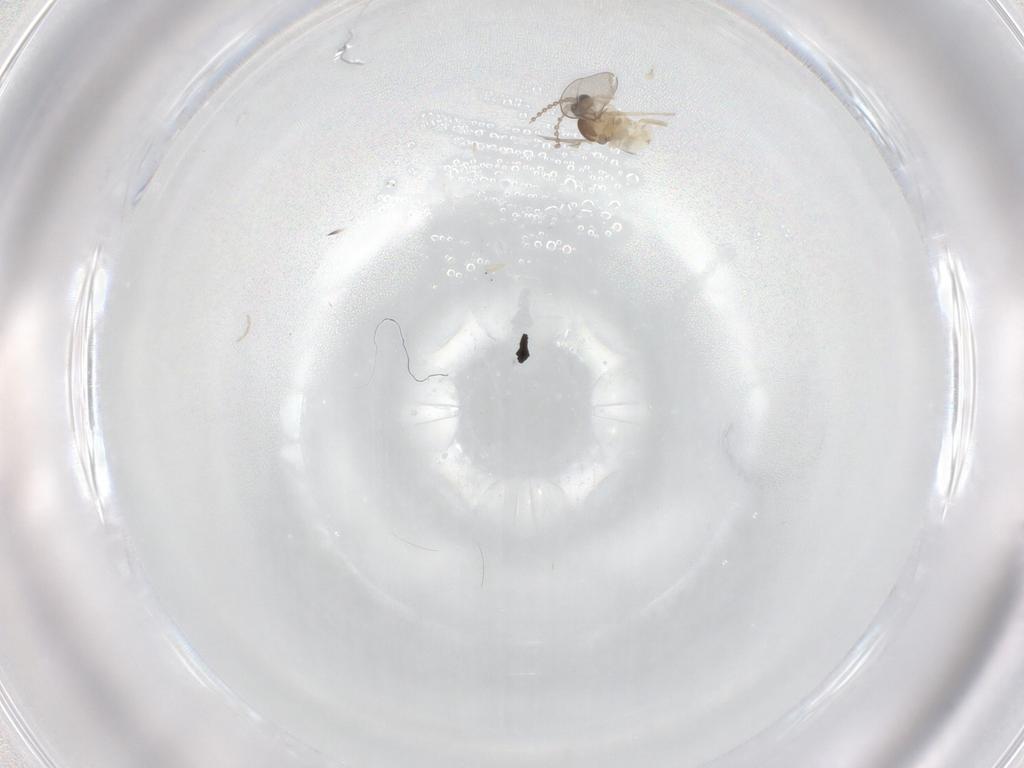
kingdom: Animalia
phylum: Arthropoda
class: Insecta
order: Diptera
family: Cecidomyiidae
